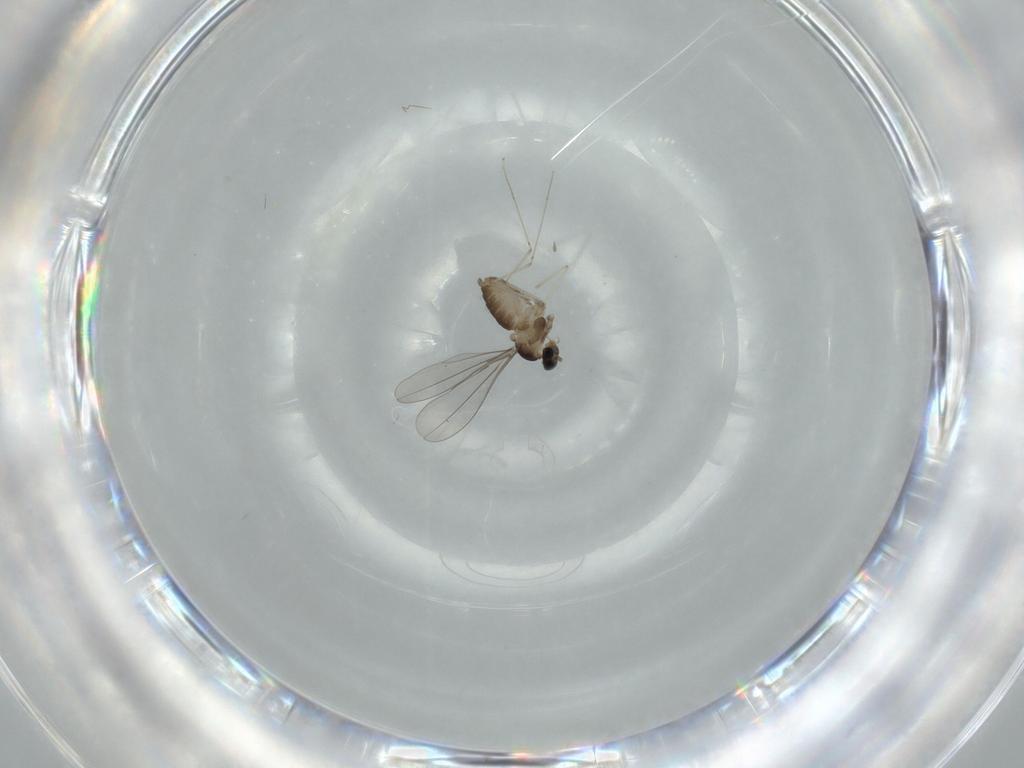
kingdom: Animalia
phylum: Arthropoda
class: Insecta
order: Diptera
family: Cecidomyiidae
